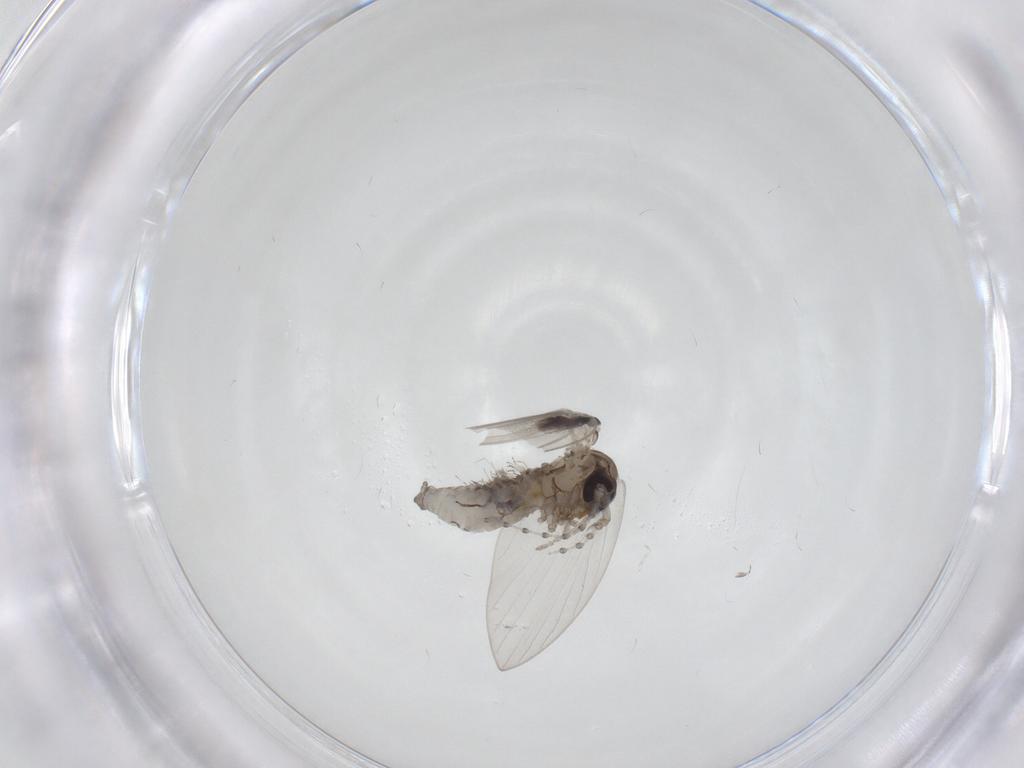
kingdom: Animalia
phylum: Arthropoda
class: Insecta
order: Diptera
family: Psychodidae
